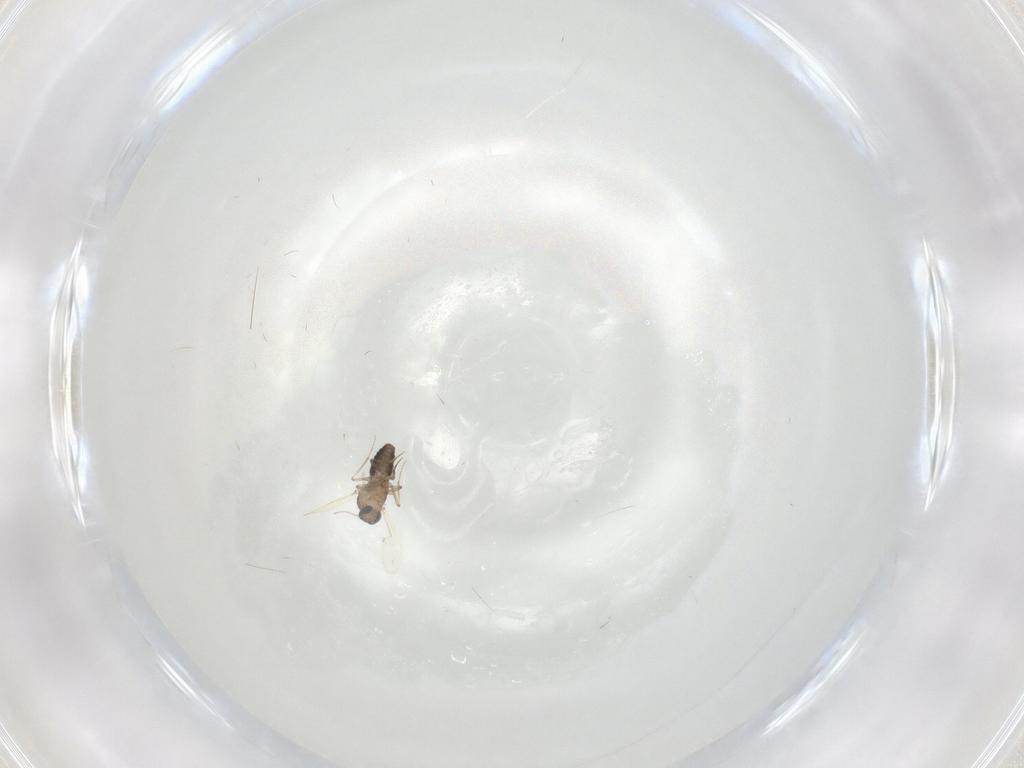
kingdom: Animalia
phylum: Arthropoda
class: Insecta
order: Diptera
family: Ceratopogonidae
